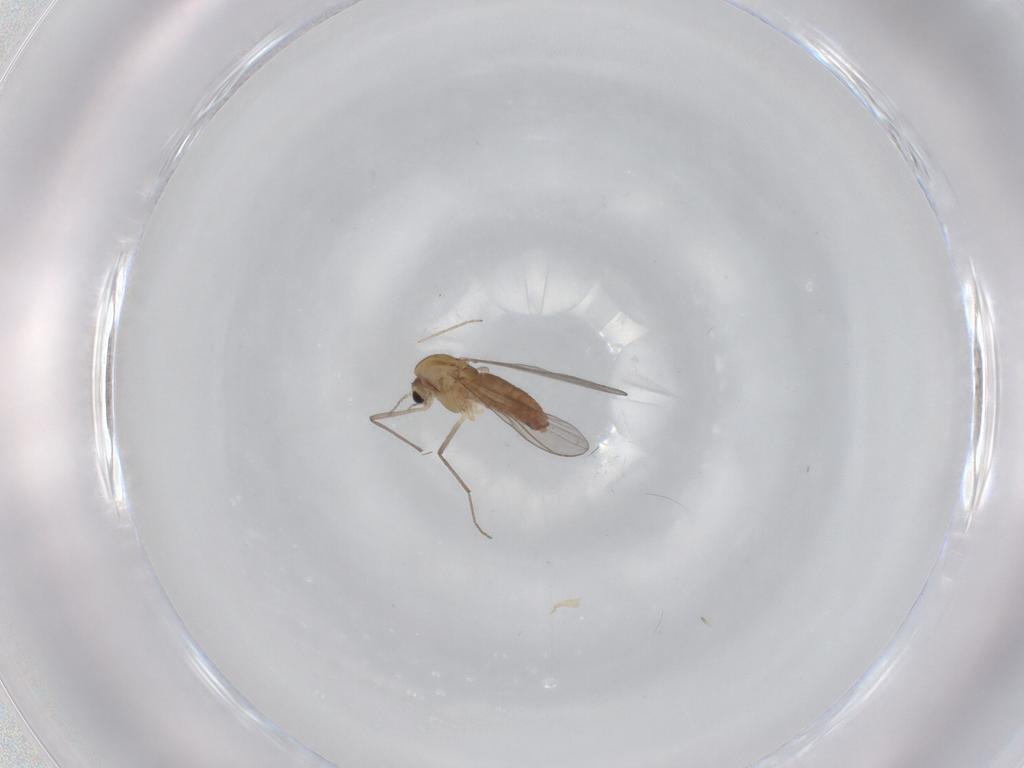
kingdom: Animalia
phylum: Arthropoda
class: Insecta
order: Diptera
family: Chironomidae
